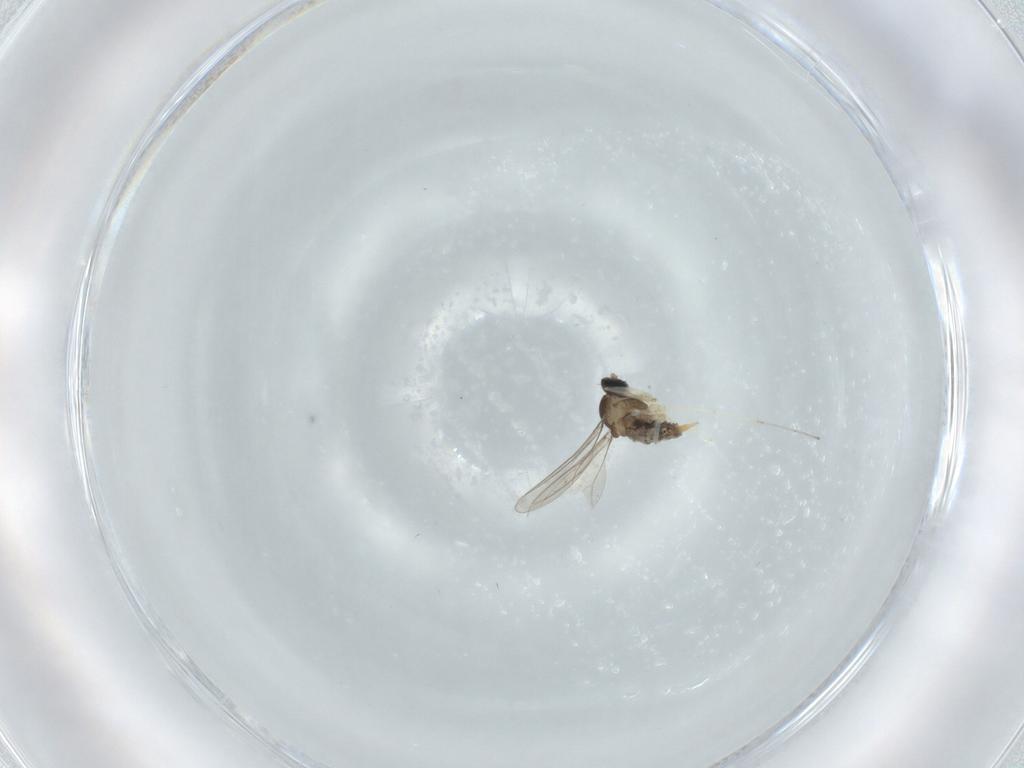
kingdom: Animalia
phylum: Arthropoda
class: Insecta
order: Diptera
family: Cecidomyiidae
